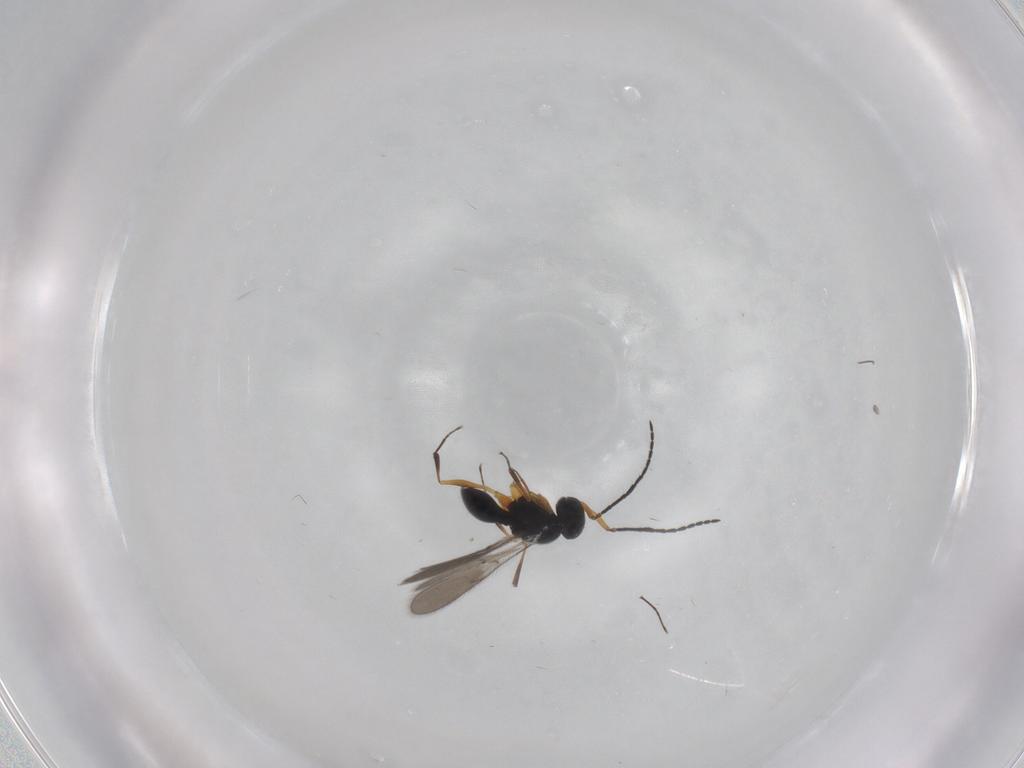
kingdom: Animalia
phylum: Arthropoda
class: Insecta
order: Hymenoptera
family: Scelionidae
